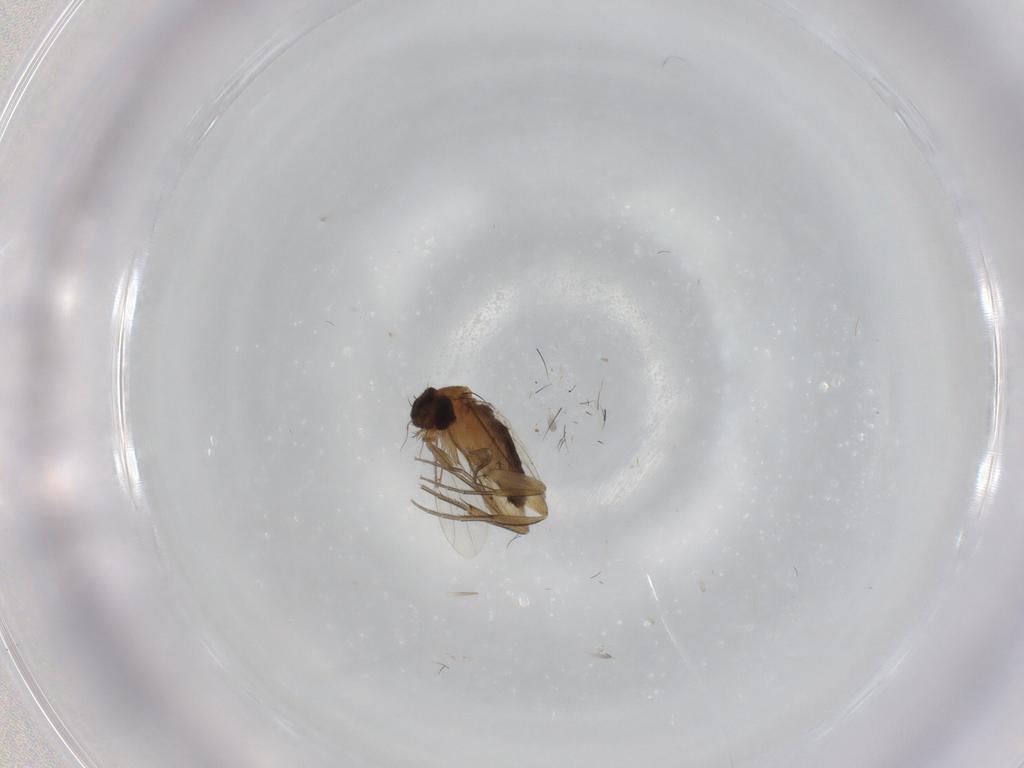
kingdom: Animalia
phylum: Arthropoda
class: Insecta
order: Diptera
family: Phoridae
